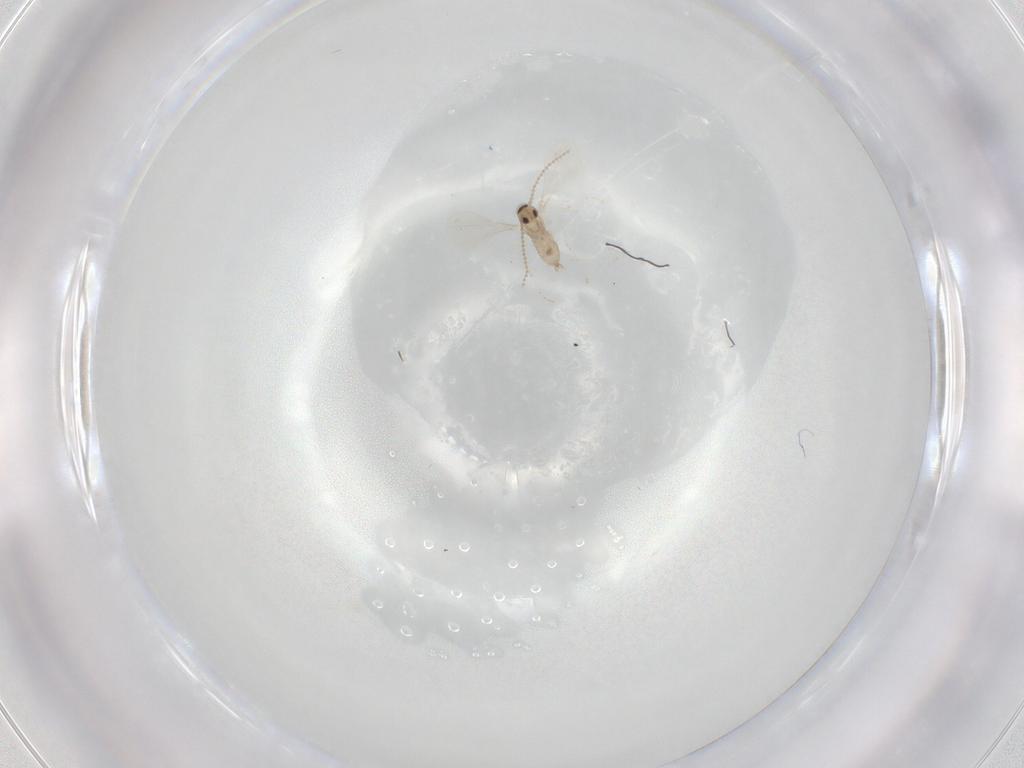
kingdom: Animalia
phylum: Arthropoda
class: Insecta
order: Diptera
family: Cecidomyiidae
